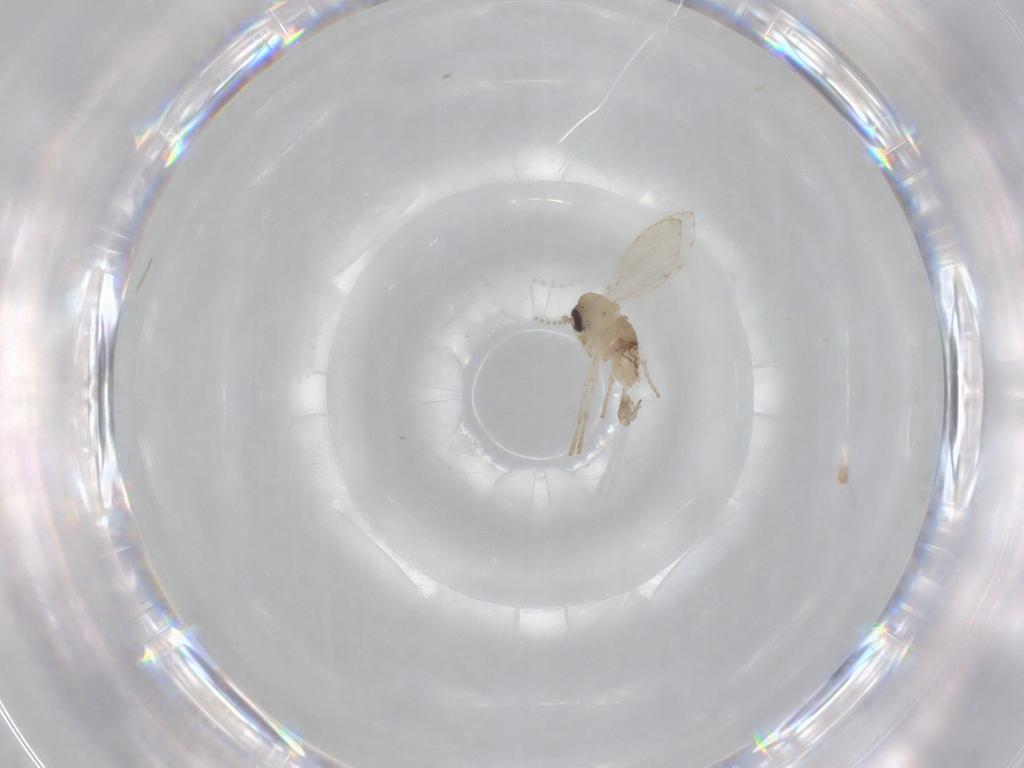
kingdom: Animalia
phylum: Arthropoda
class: Insecta
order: Diptera
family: Psychodidae
